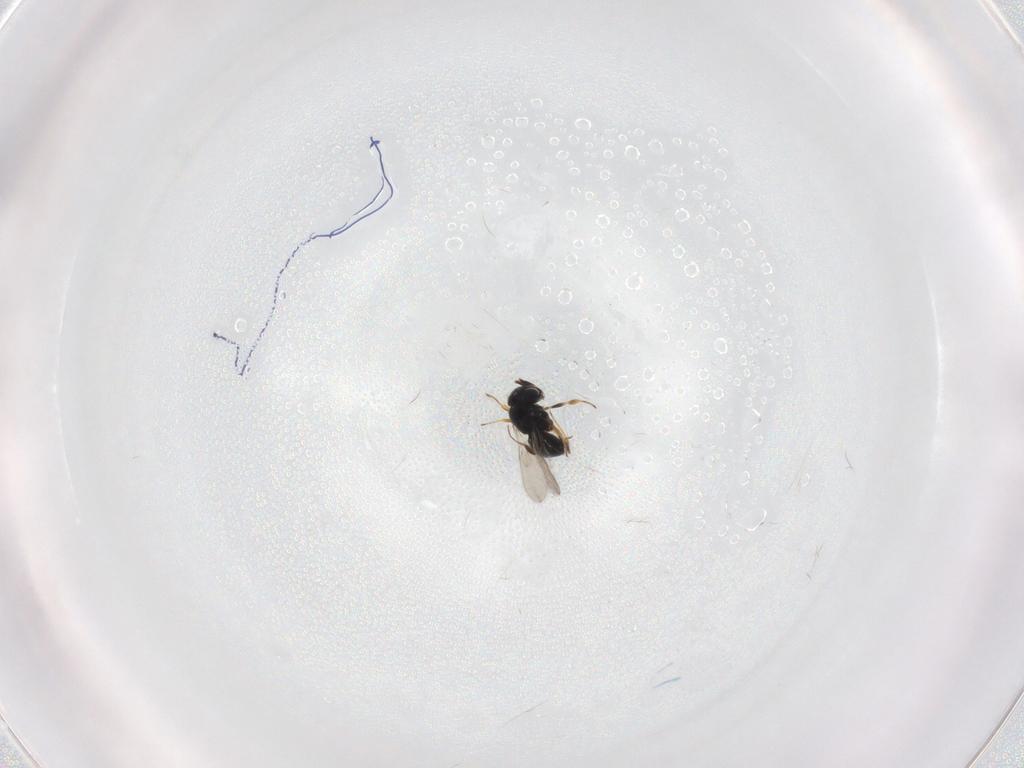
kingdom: Animalia
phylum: Arthropoda
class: Insecta
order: Hymenoptera
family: Scelionidae
